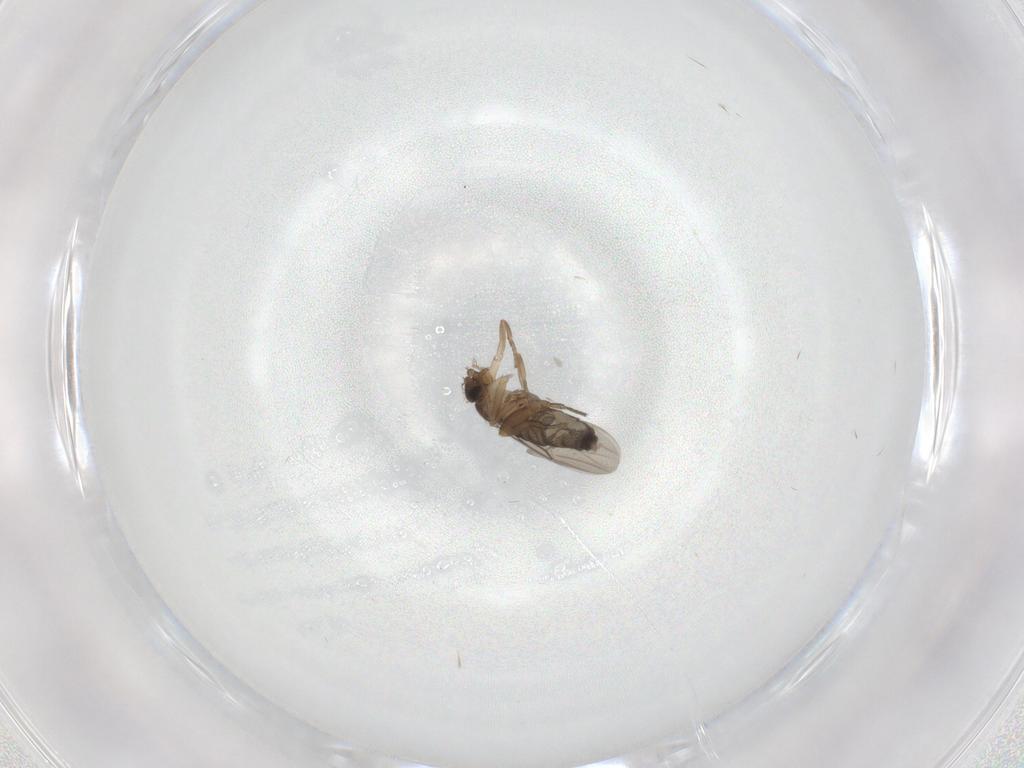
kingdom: Animalia
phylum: Arthropoda
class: Insecta
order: Diptera
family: Phoridae
